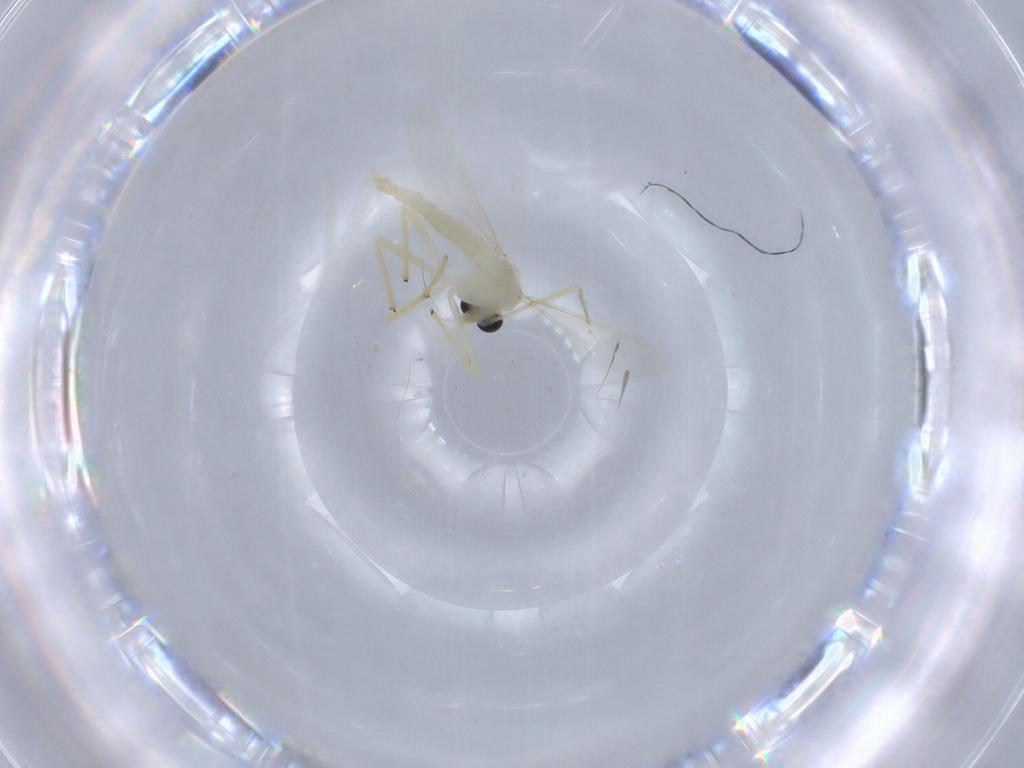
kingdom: Animalia
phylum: Arthropoda
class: Insecta
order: Diptera
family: Chironomidae
